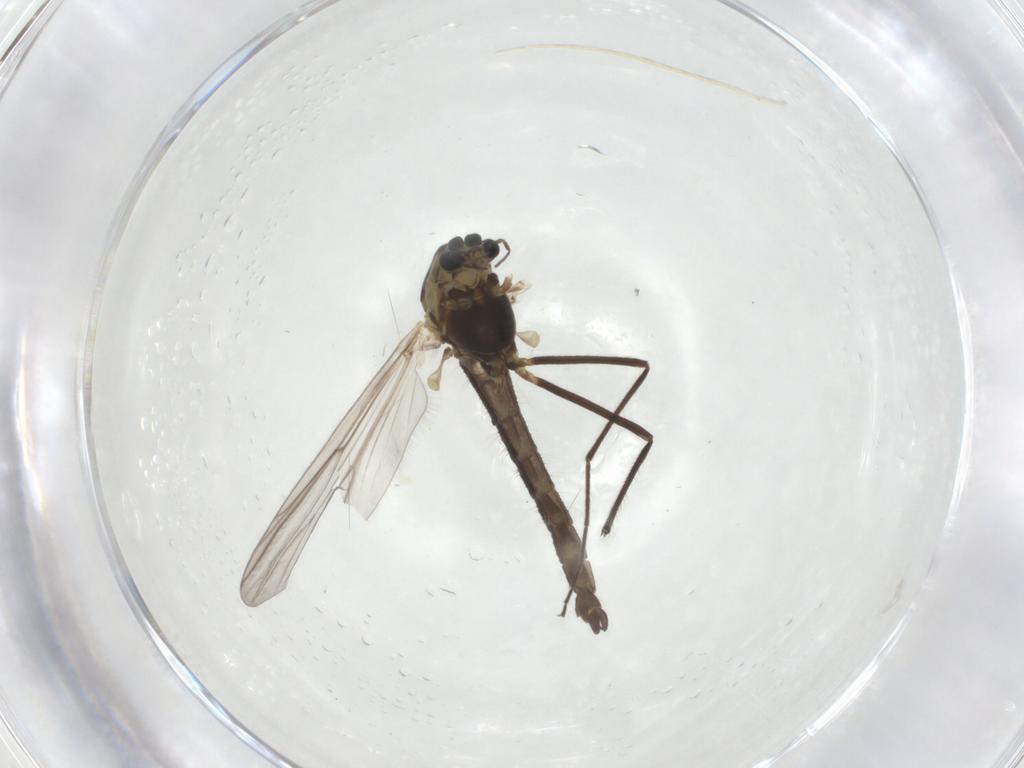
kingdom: Animalia
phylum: Arthropoda
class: Insecta
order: Diptera
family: Chironomidae
